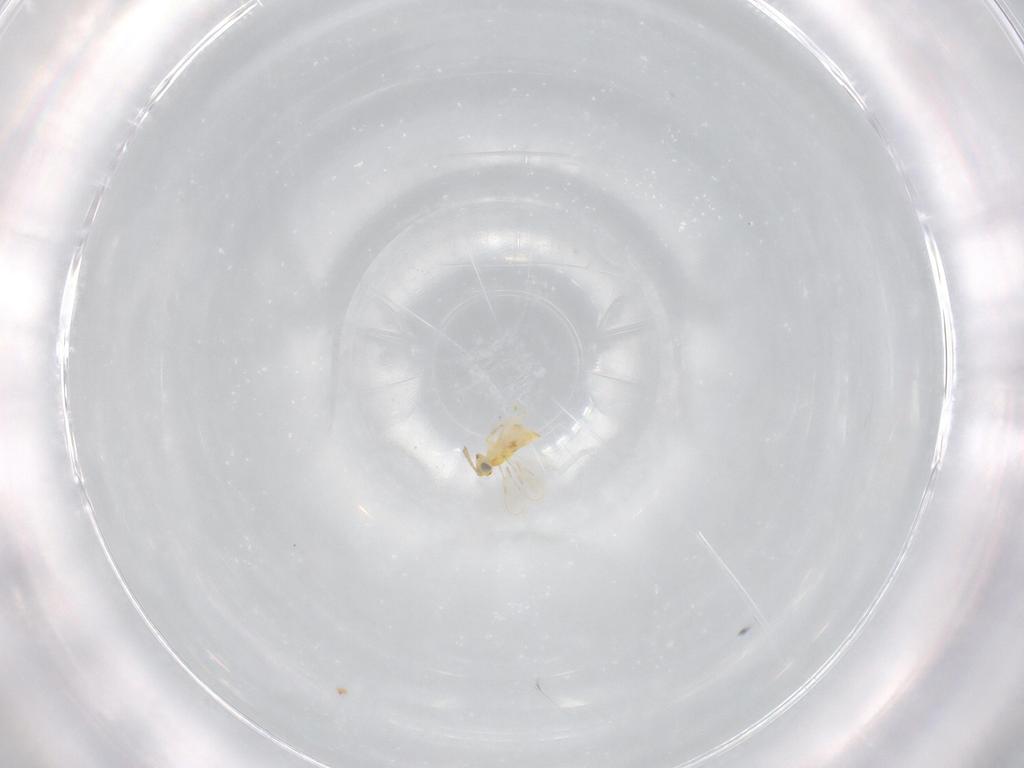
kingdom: Animalia
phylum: Arthropoda
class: Insecta
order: Hymenoptera
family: Aphelinidae
